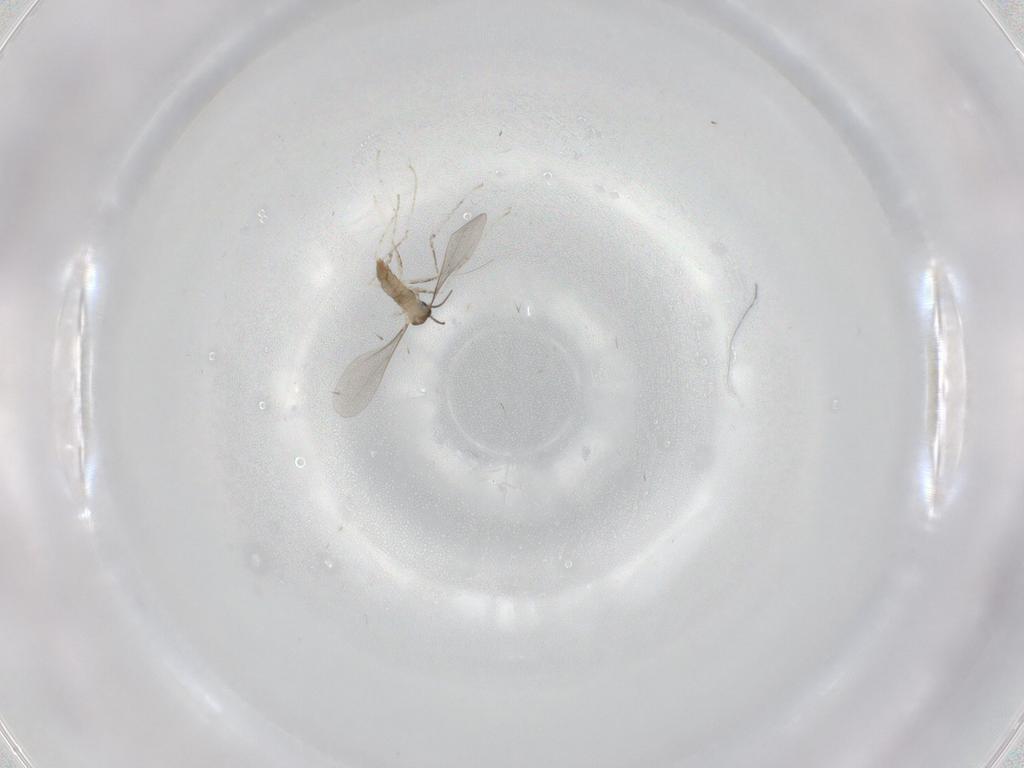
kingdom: Animalia
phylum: Arthropoda
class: Insecta
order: Diptera
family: Cecidomyiidae
